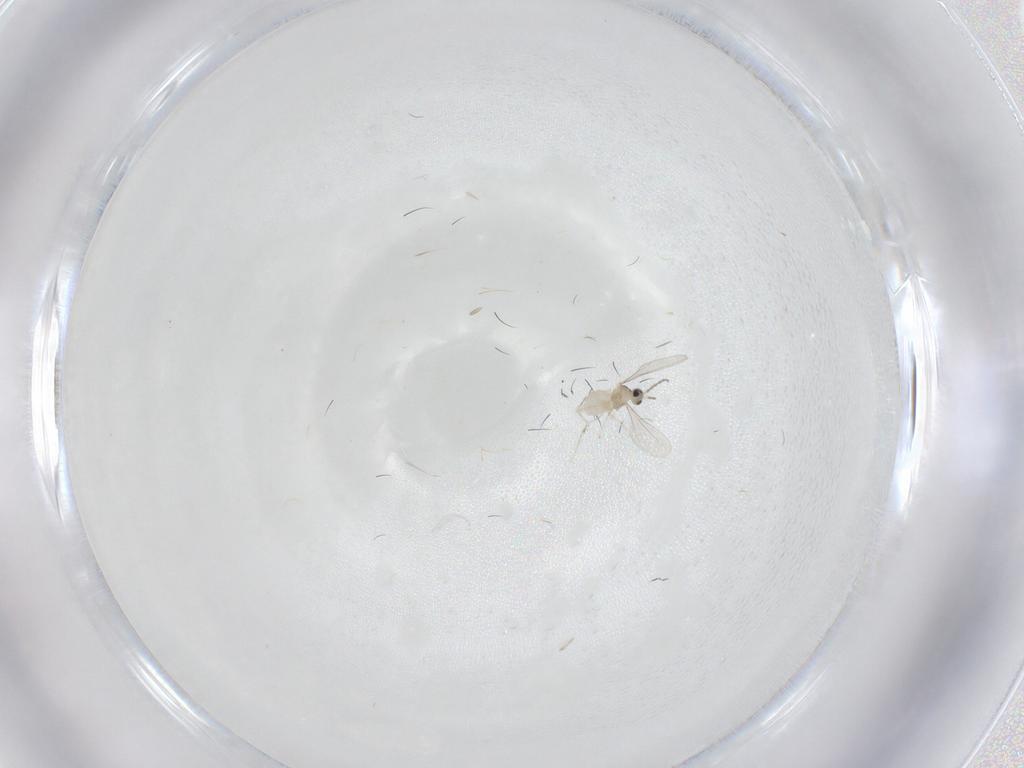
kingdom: Animalia
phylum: Arthropoda
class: Insecta
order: Diptera
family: Cecidomyiidae
